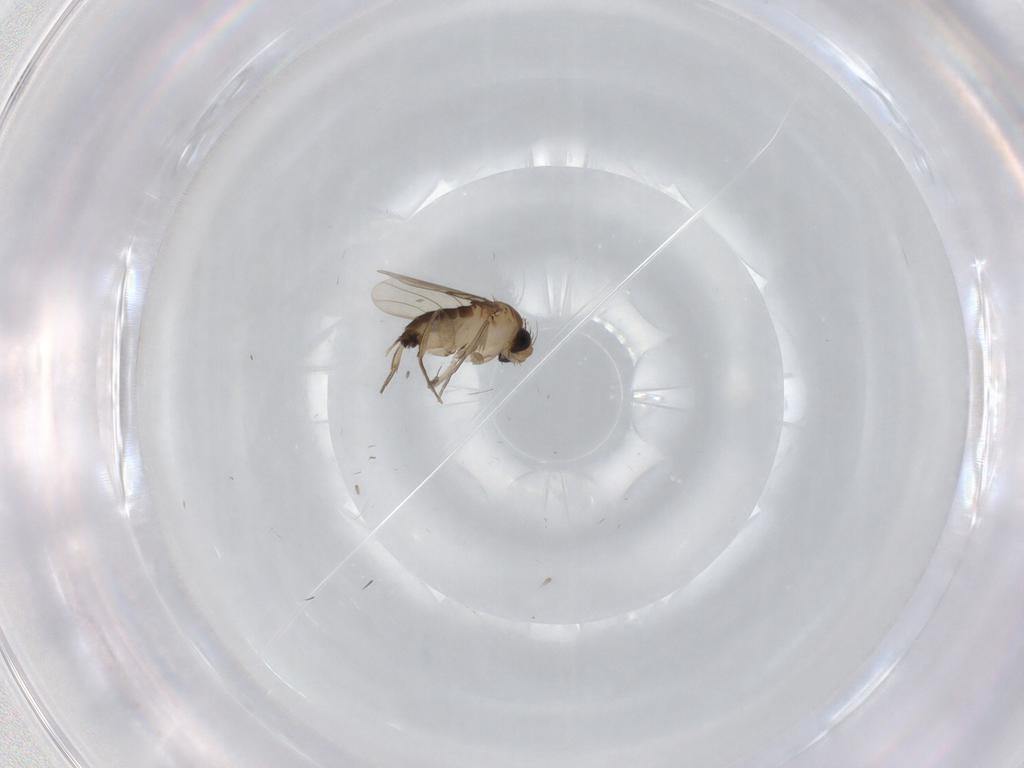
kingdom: Animalia
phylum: Arthropoda
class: Insecta
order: Diptera
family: Phoridae
